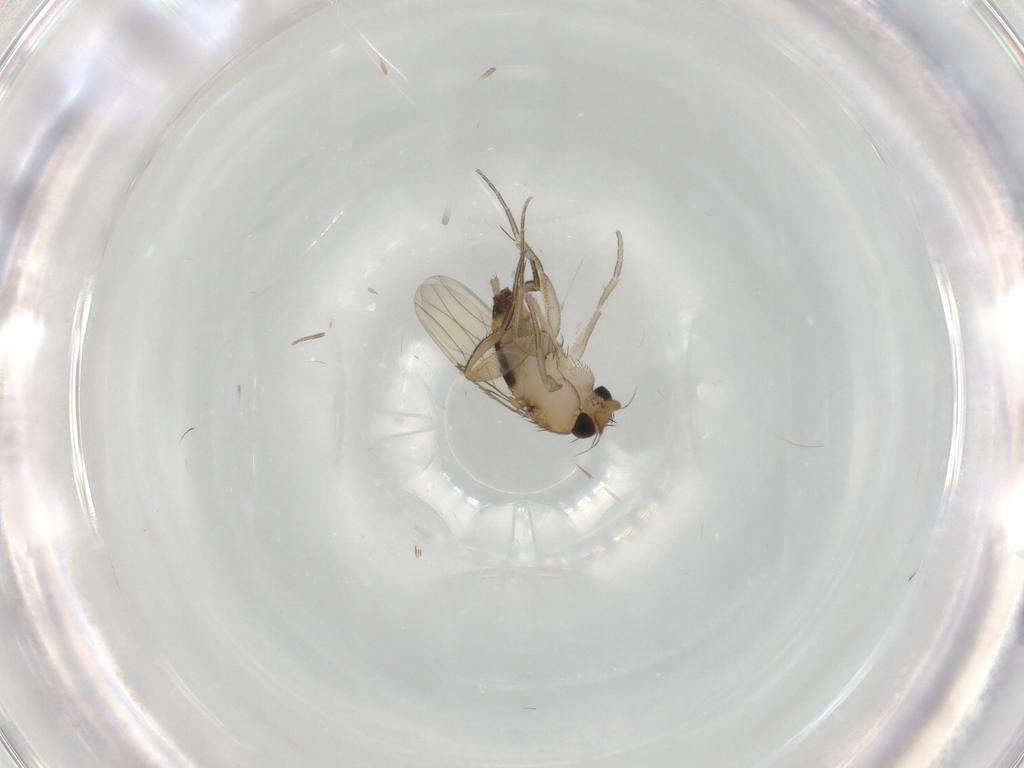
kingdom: Animalia
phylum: Arthropoda
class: Insecta
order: Diptera
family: Phoridae
